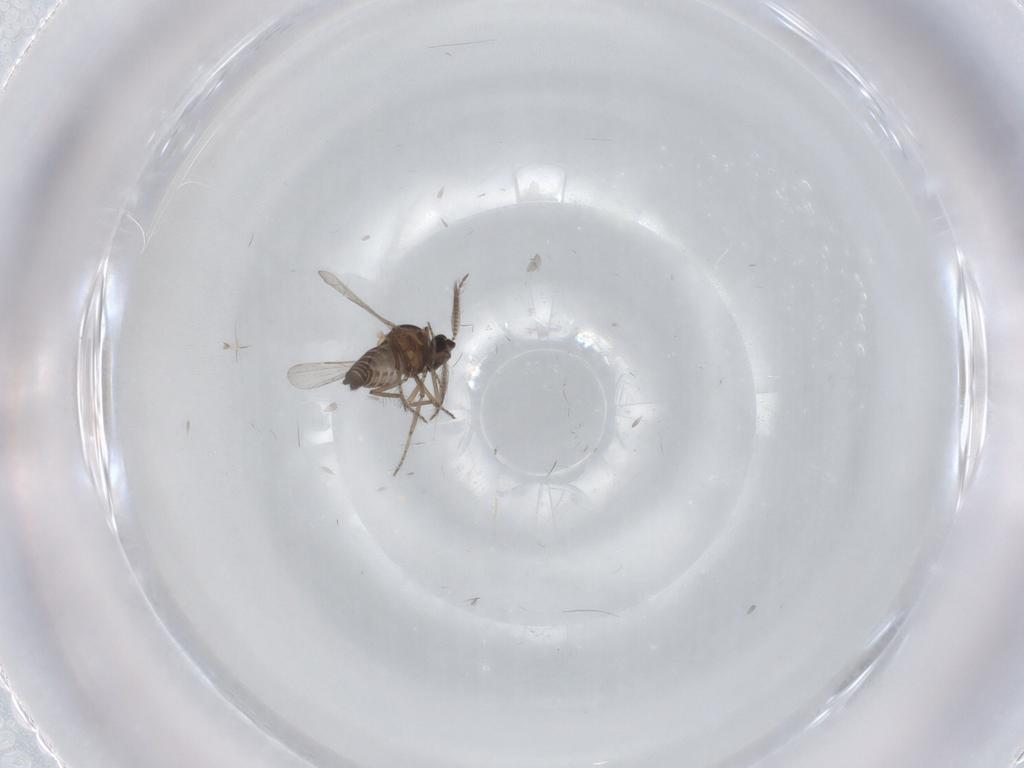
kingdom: Animalia
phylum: Arthropoda
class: Insecta
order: Diptera
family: Ceratopogonidae
